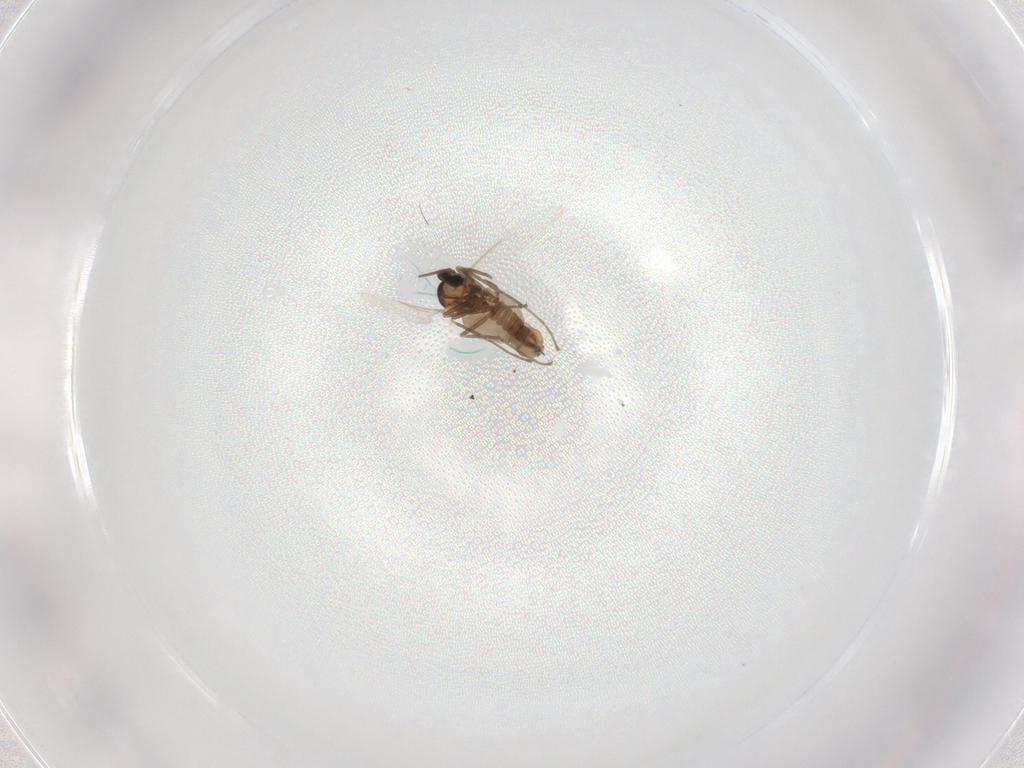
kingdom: Animalia
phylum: Arthropoda
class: Insecta
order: Diptera
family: Cecidomyiidae
